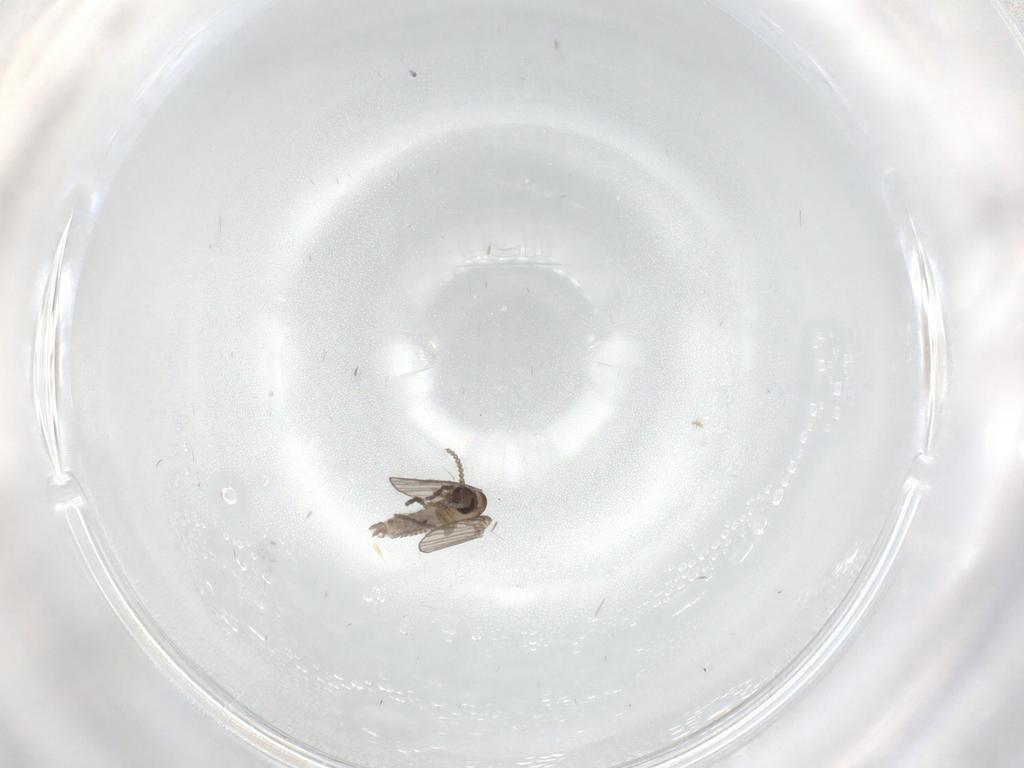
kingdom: Animalia
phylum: Arthropoda
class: Insecta
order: Diptera
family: Psychodidae
